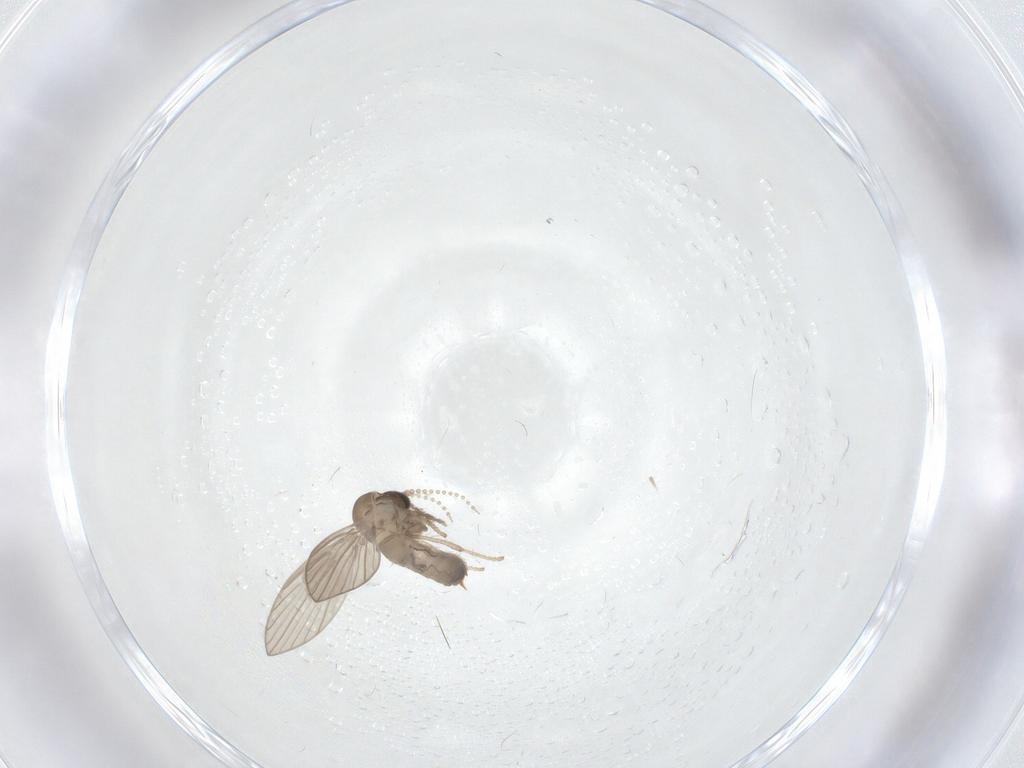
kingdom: Animalia
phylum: Arthropoda
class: Insecta
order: Diptera
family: Psychodidae
